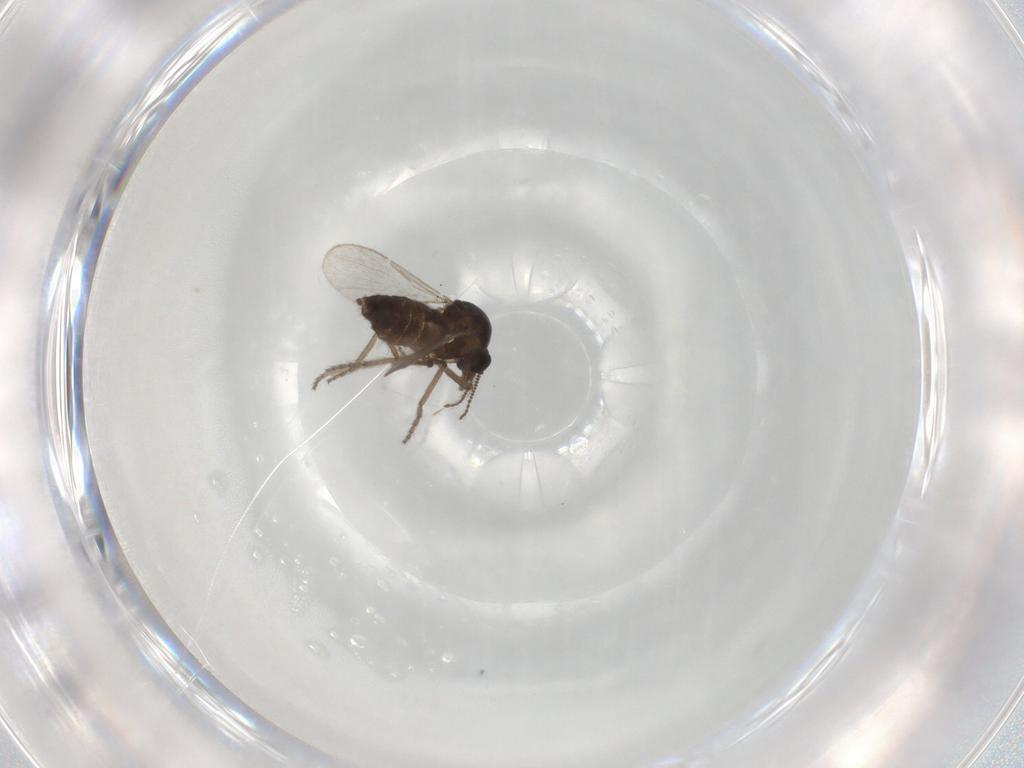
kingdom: Animalia
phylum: Arthropoda
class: Insecta
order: Diptera
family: Ceratopogonidae
